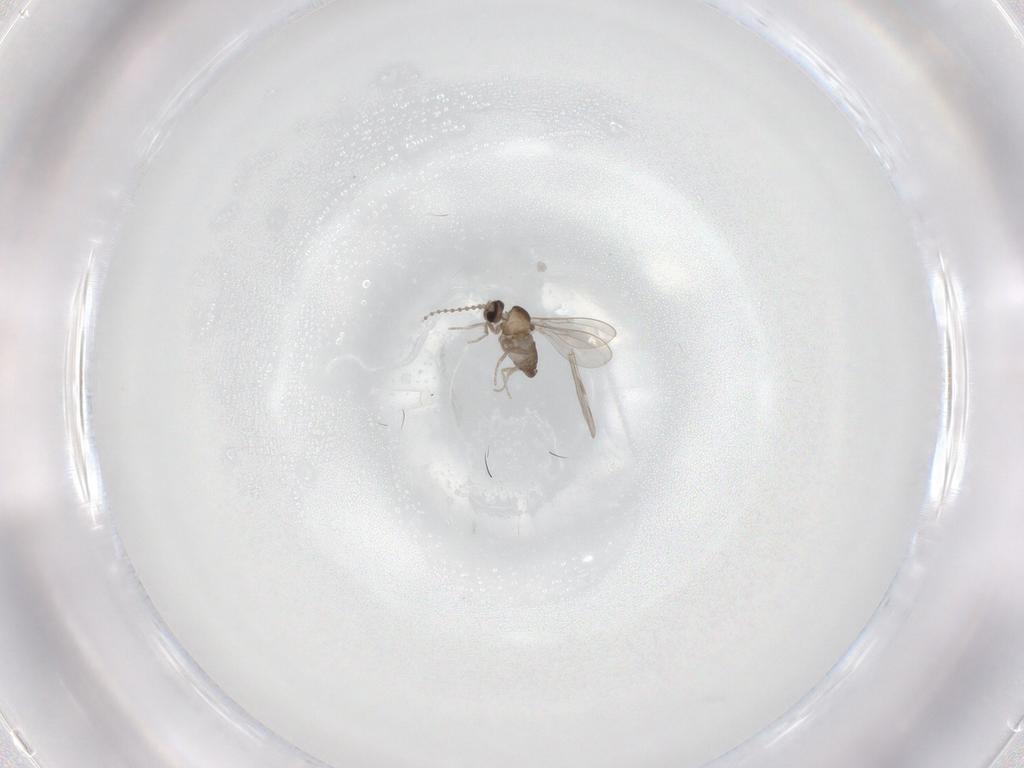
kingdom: Animalia
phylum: Arthropoda
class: Insecta
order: Diptera
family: Cecidomyiidae
